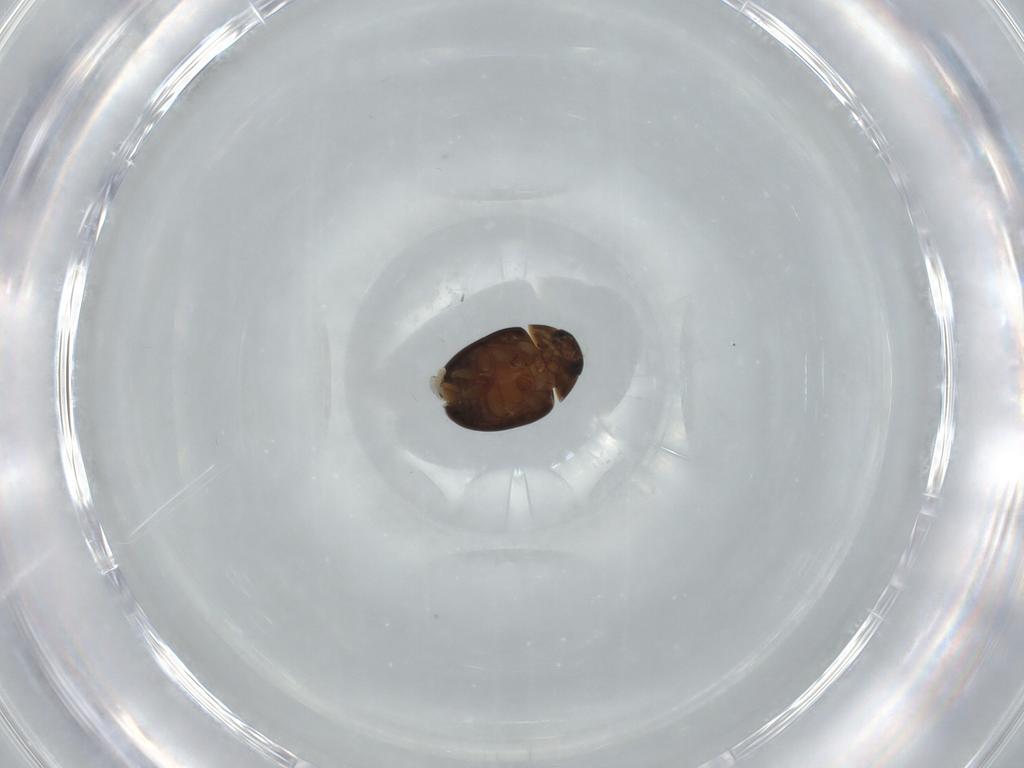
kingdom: Animalia
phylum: Arthropoda
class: Insecta
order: Coleoptera
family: Phalacridae
